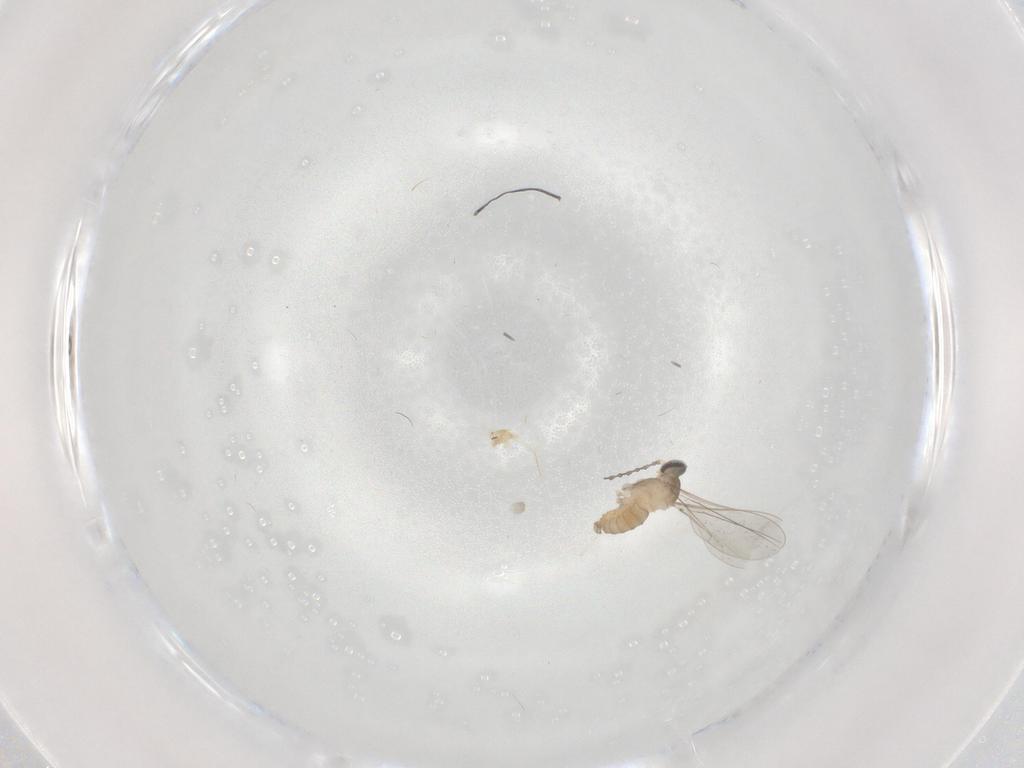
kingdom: Animalia
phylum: Arthropoda
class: Insecta
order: Diptera
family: Cecidomyiidae
